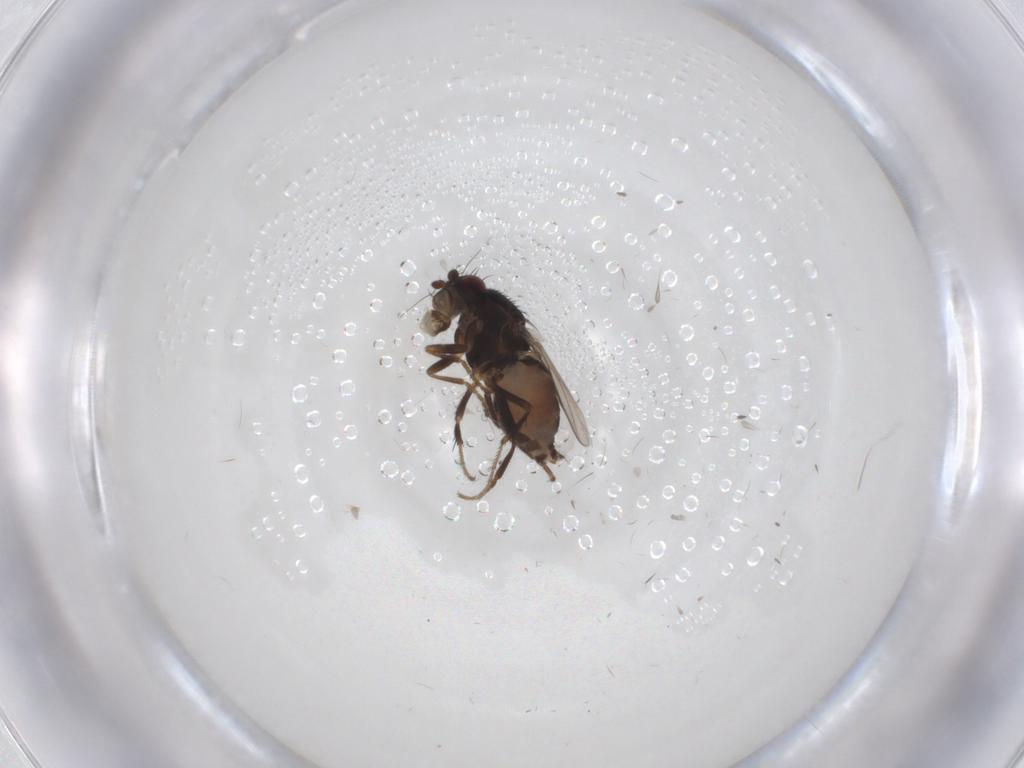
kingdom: Animalia
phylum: Arthropoda
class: Insecta
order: Diptera
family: Sphaeroceridae
